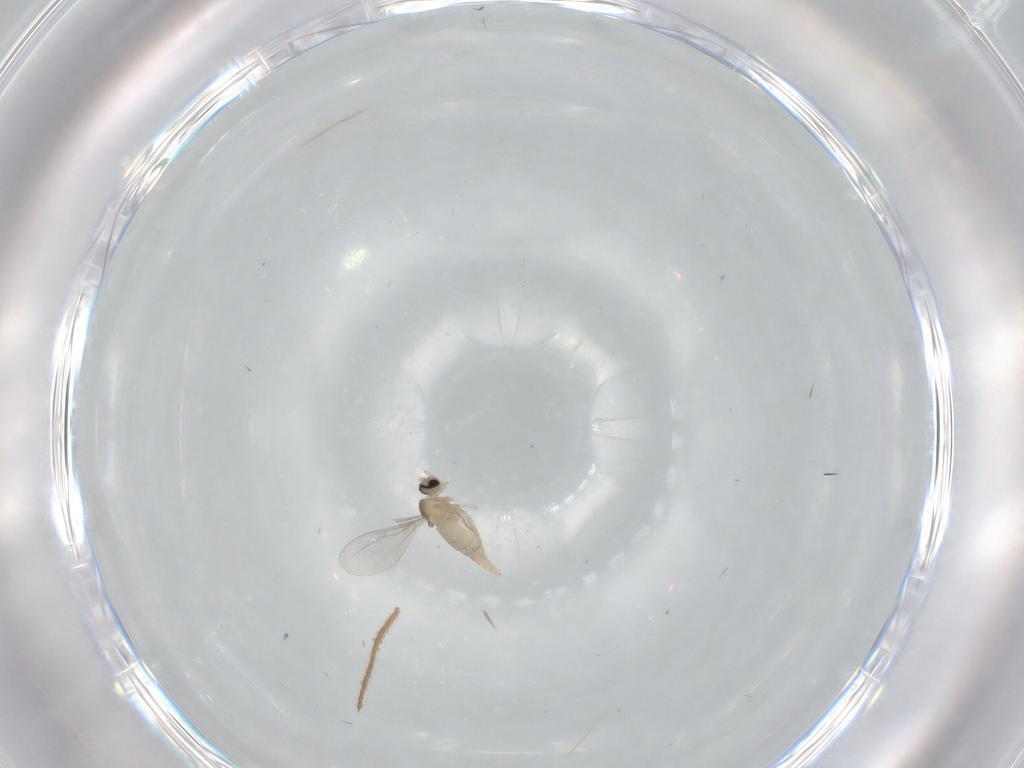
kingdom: Animalia
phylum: Arthropoda
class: Insecta
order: Diptera
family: Cecidomyiidae
